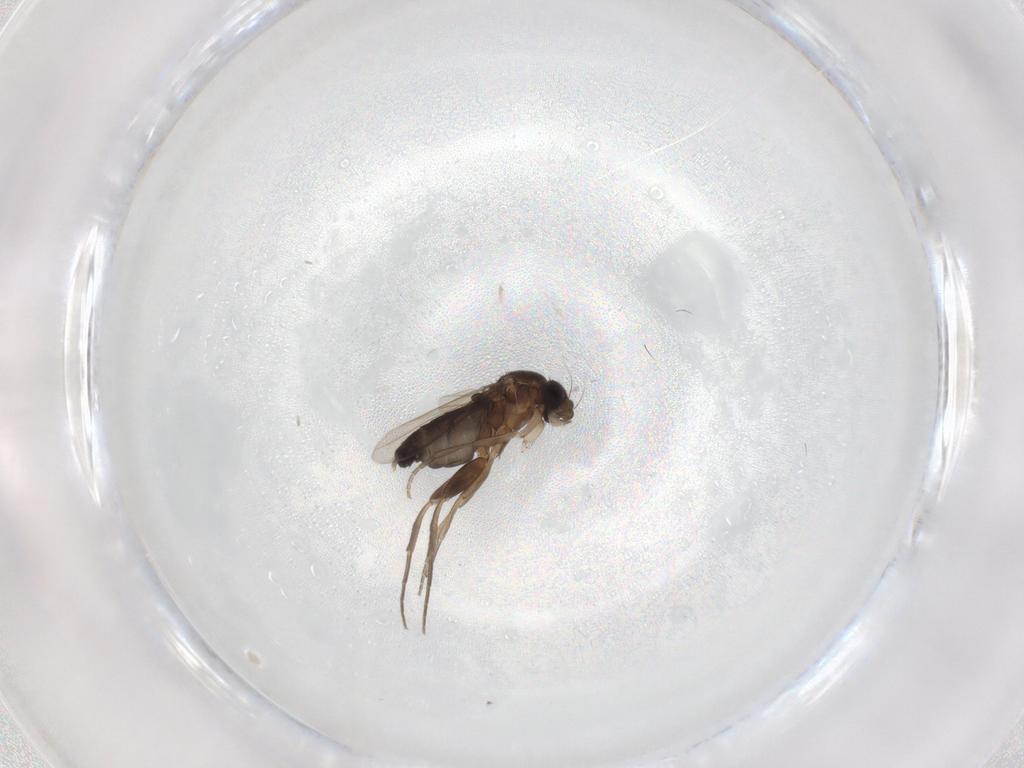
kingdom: Animalia
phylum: Arthropoda
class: Insecta
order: Diptera
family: Phoridae
